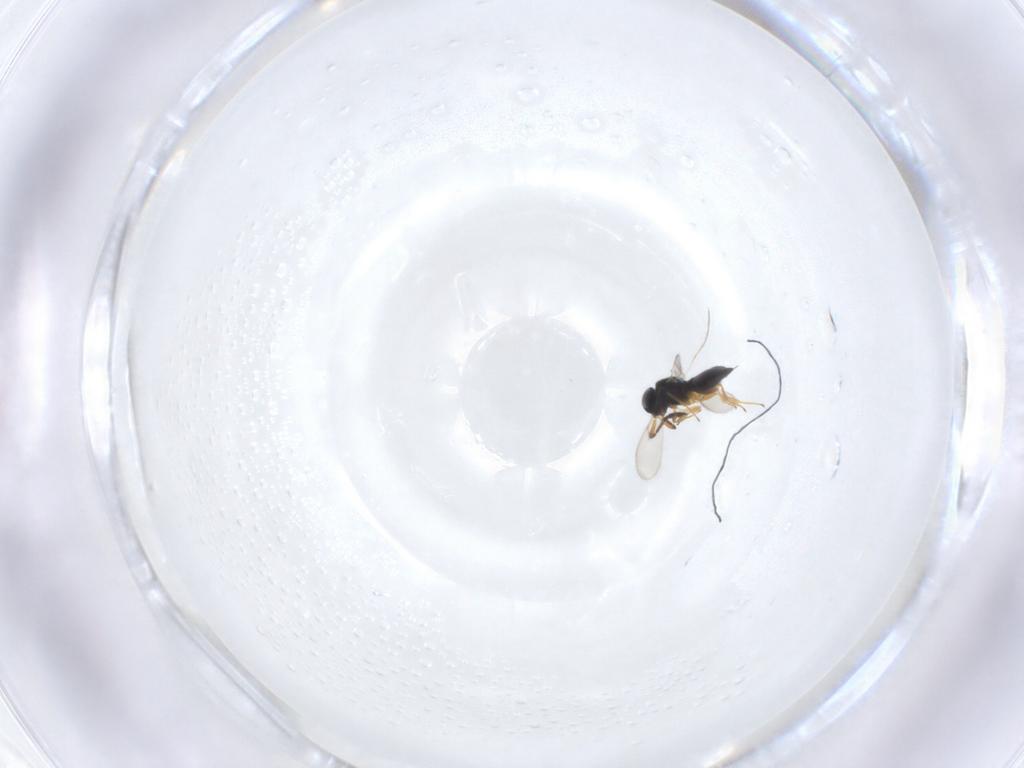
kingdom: Animalia
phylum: Arthropoda
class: Insecta
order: Hymenoptera
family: Scelionidae
